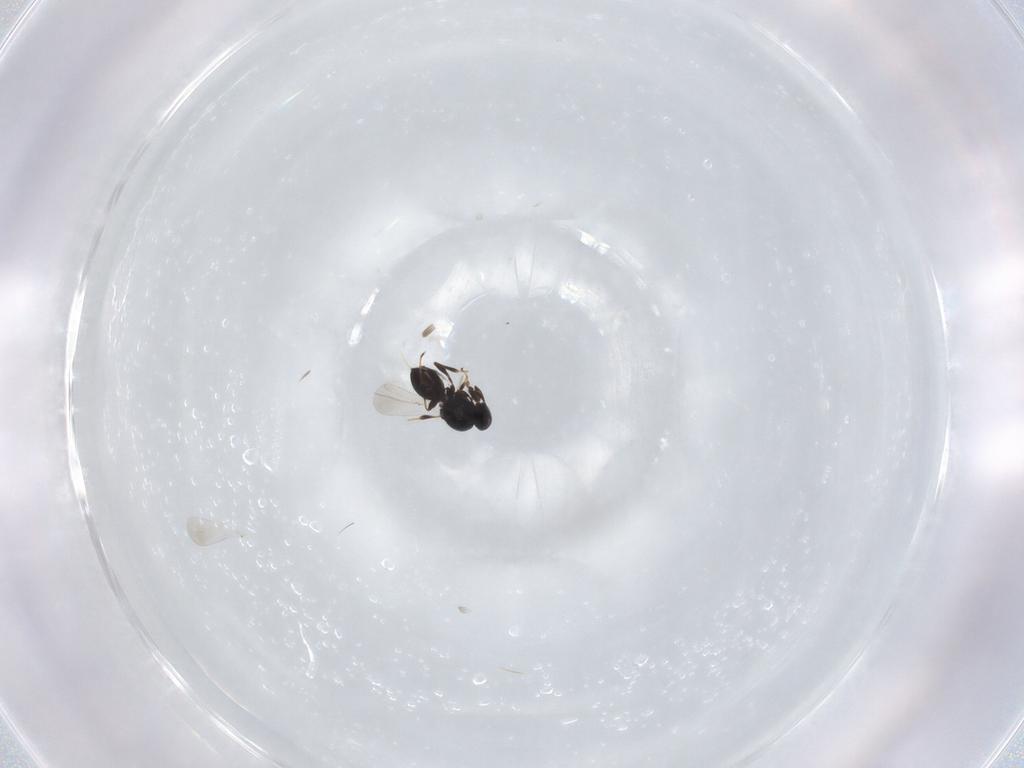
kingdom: Animalia
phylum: Arthropoda
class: Insecta
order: Hymenoptera
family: Platygastridae
